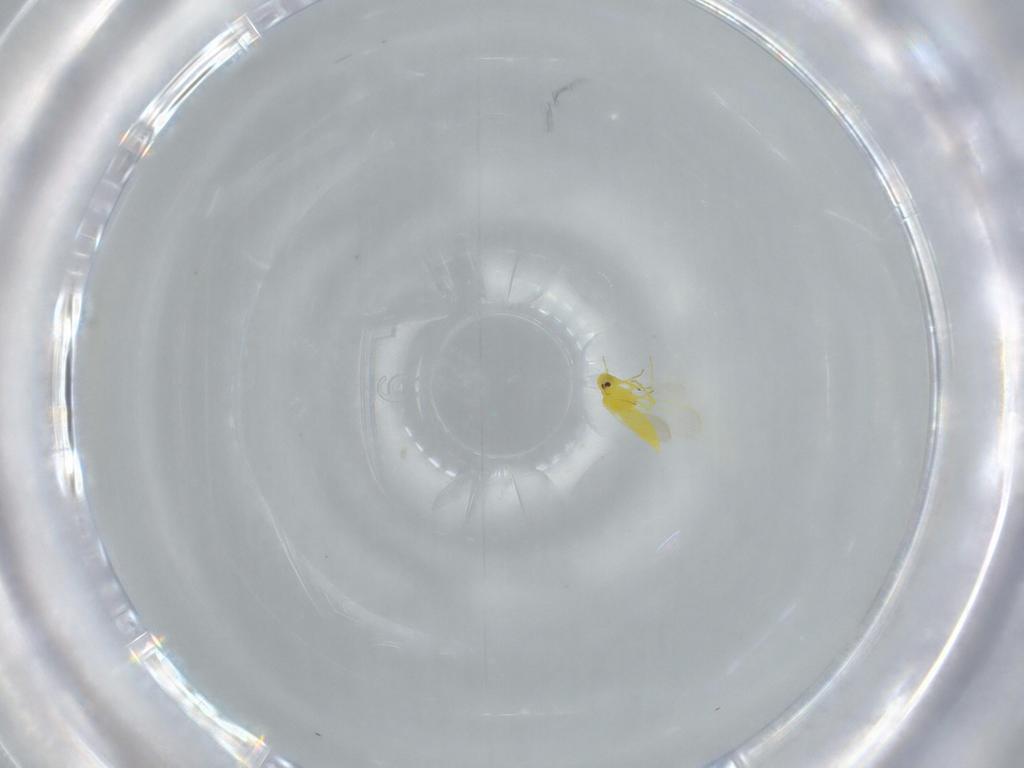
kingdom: Animalia
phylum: Arthropoda
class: Insecta
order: Hemiptera
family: Aleyrodidae
